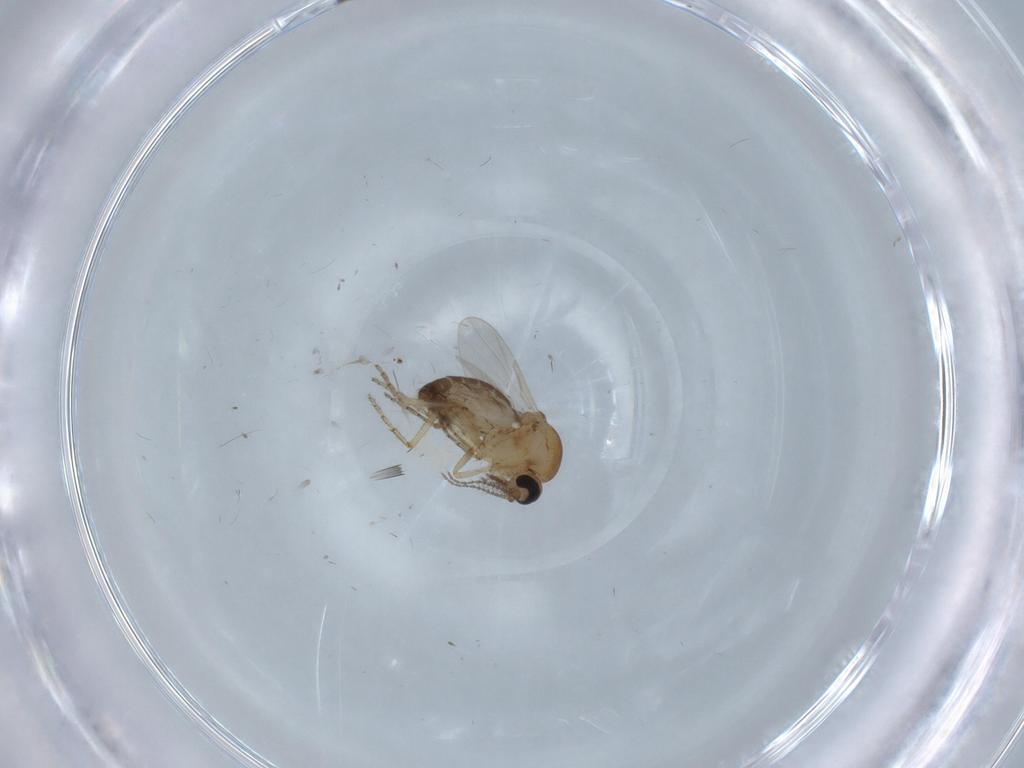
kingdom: Animalia
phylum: Arthropoda
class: Insecta
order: Diptera
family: Ceratopogonidae
